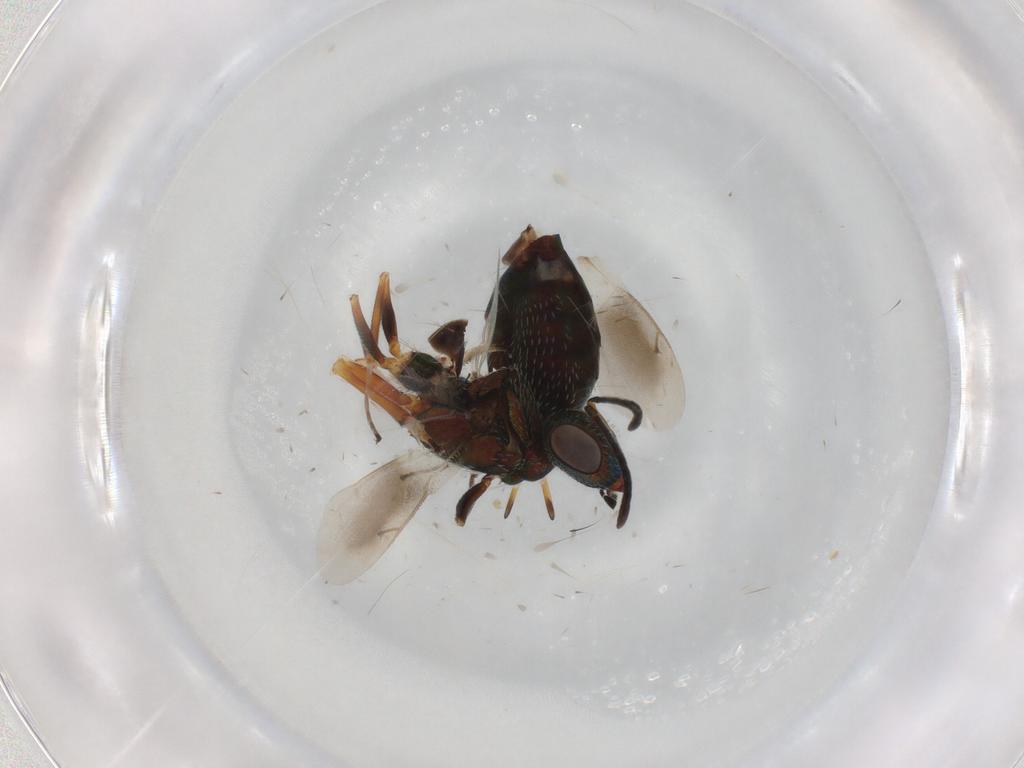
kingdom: Animalia
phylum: Arthropoda
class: Insecta
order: Hymenoptera
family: Eupelmidae
